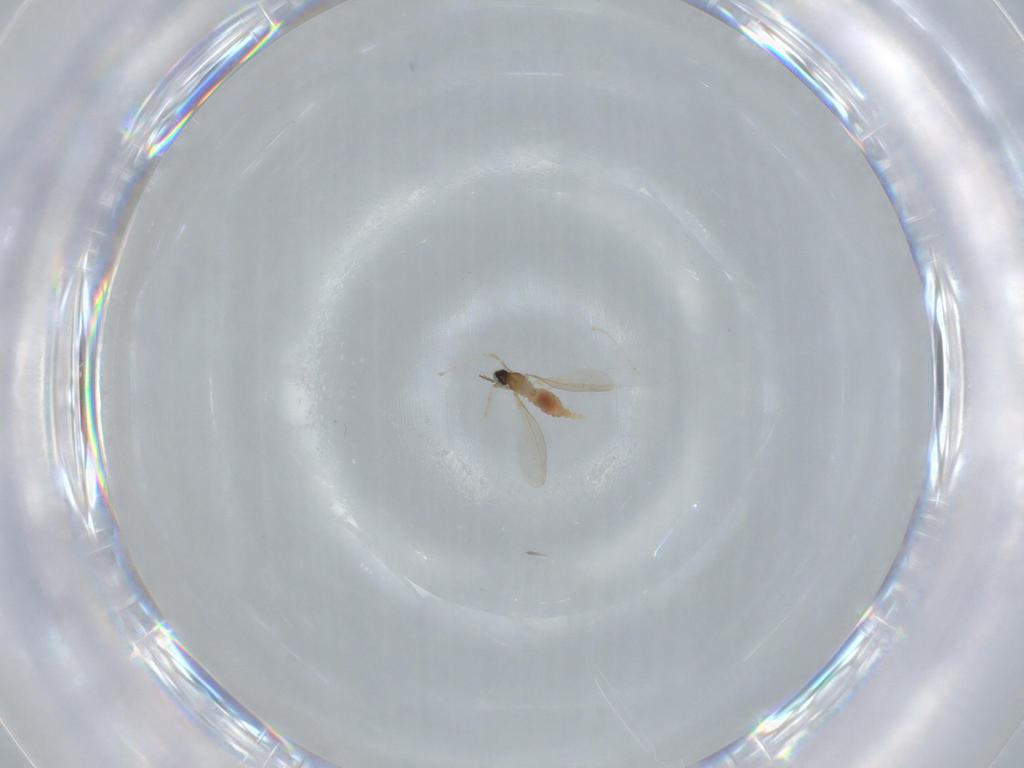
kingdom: Animalia
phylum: Arthropoda
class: Insecta
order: Diptera
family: Cecidomyiidae
